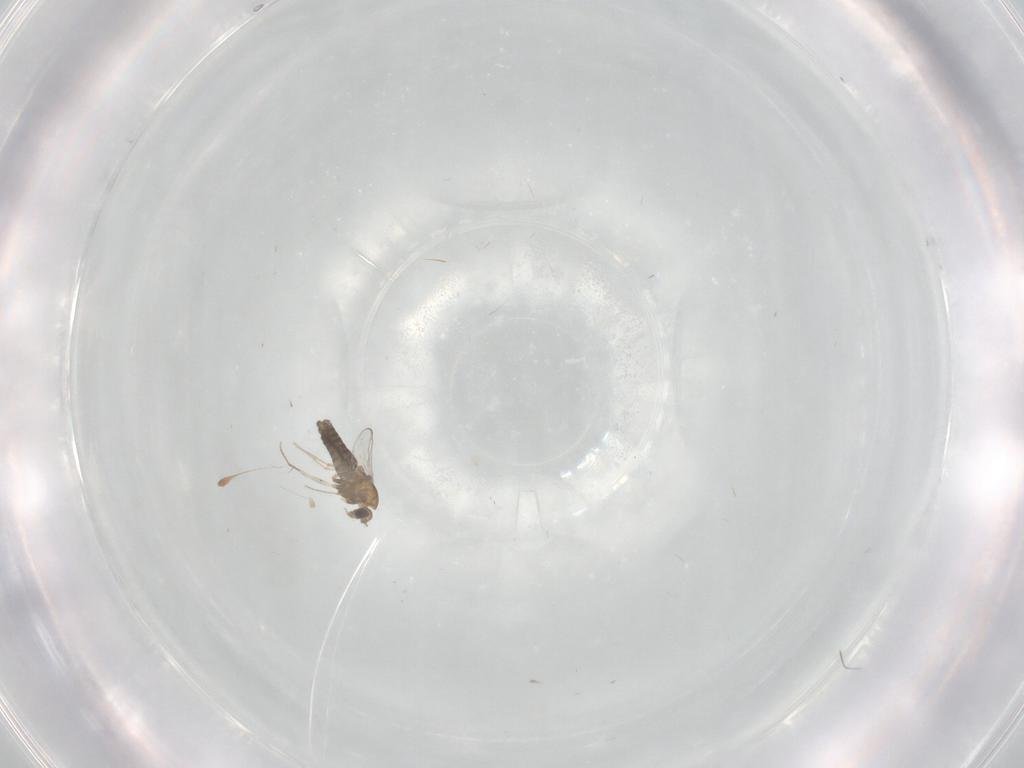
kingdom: Animalia
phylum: Arthropoda
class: Insecta
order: Diptera
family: Chironomidae
